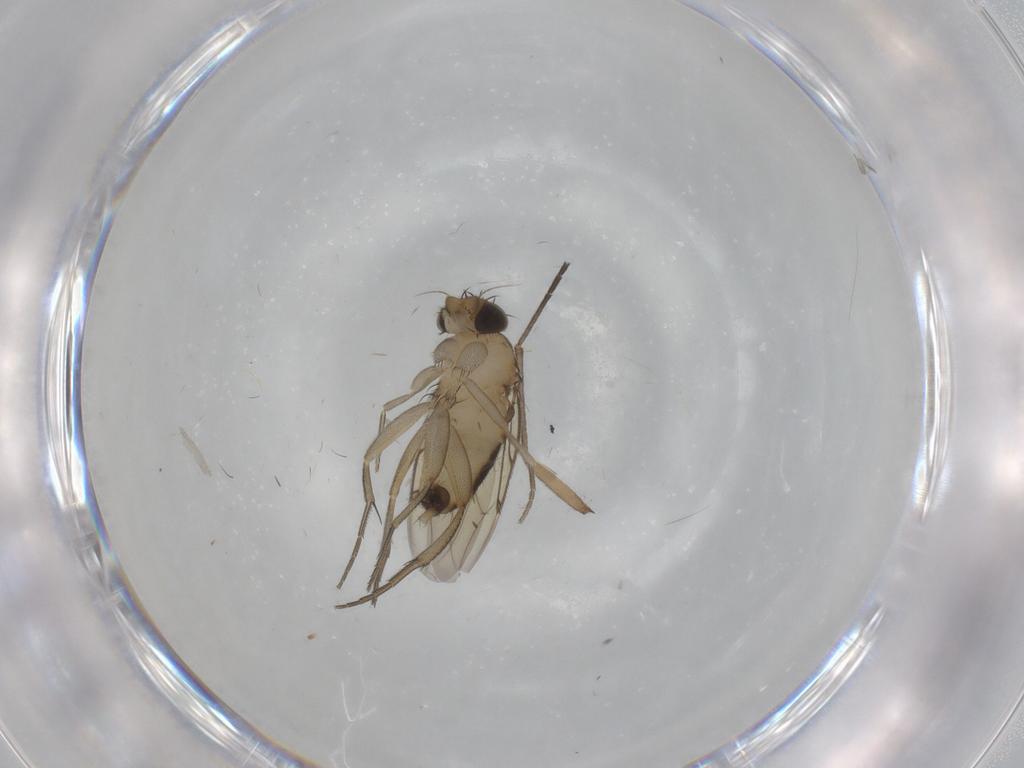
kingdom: Animalia
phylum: Arthropoda
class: Insecta
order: Diptera
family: Sciaridae
